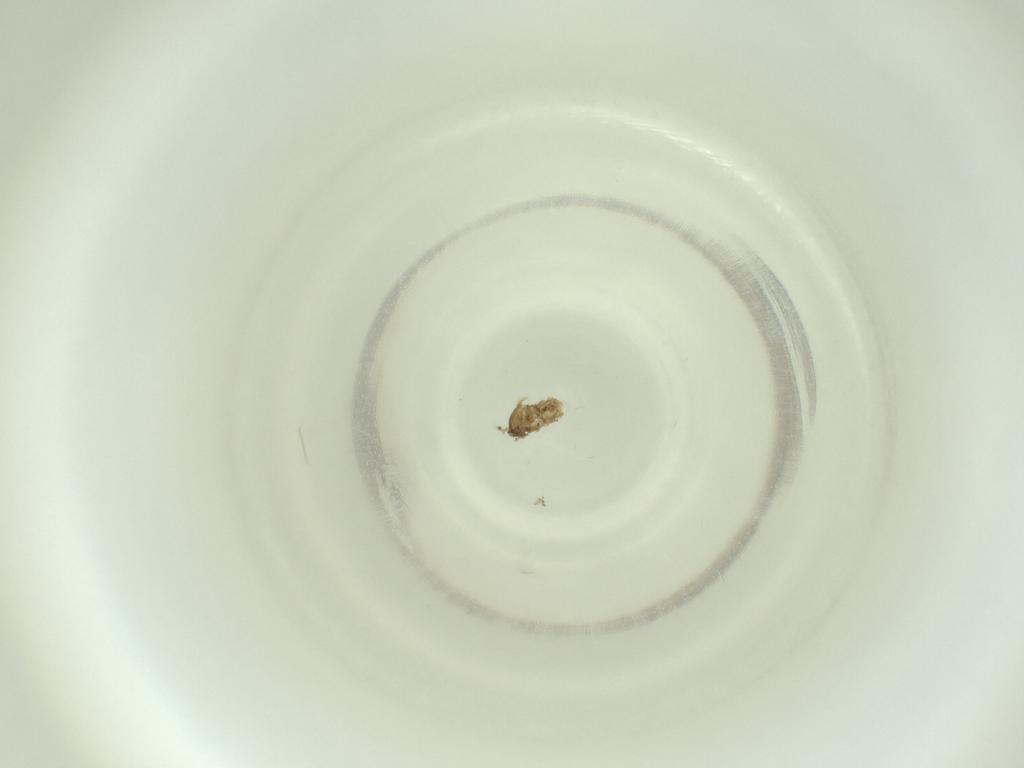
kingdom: Animalia
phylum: Arthropoda
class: Insecta
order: Diptera
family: Cecidomyiidae
